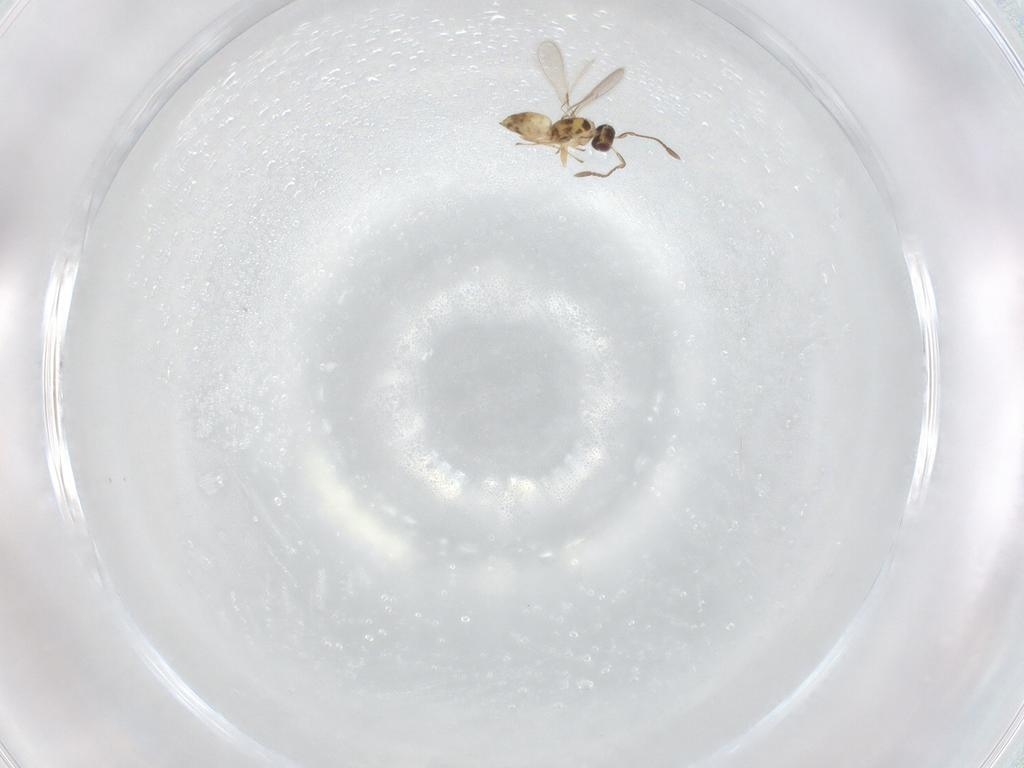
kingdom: Animalia
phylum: Arthropoda
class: Insecta
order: Hymenoptera
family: Mymaridae
